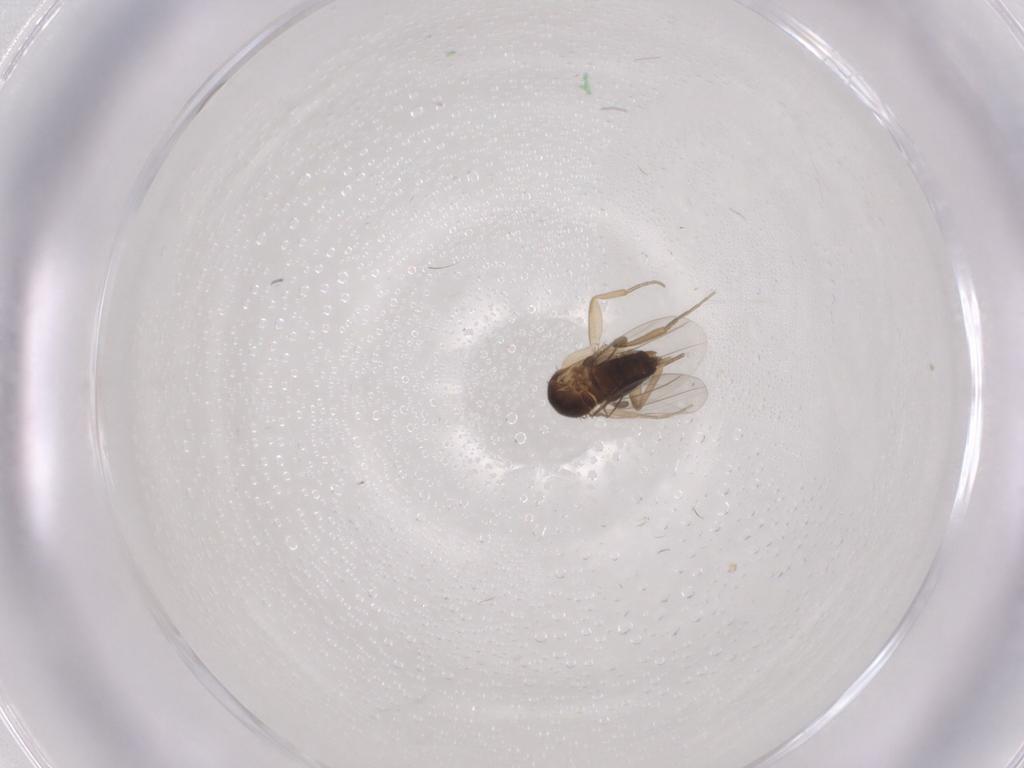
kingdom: Animalia
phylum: Arthropoda
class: Insecta
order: Diptera
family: Phoridae
